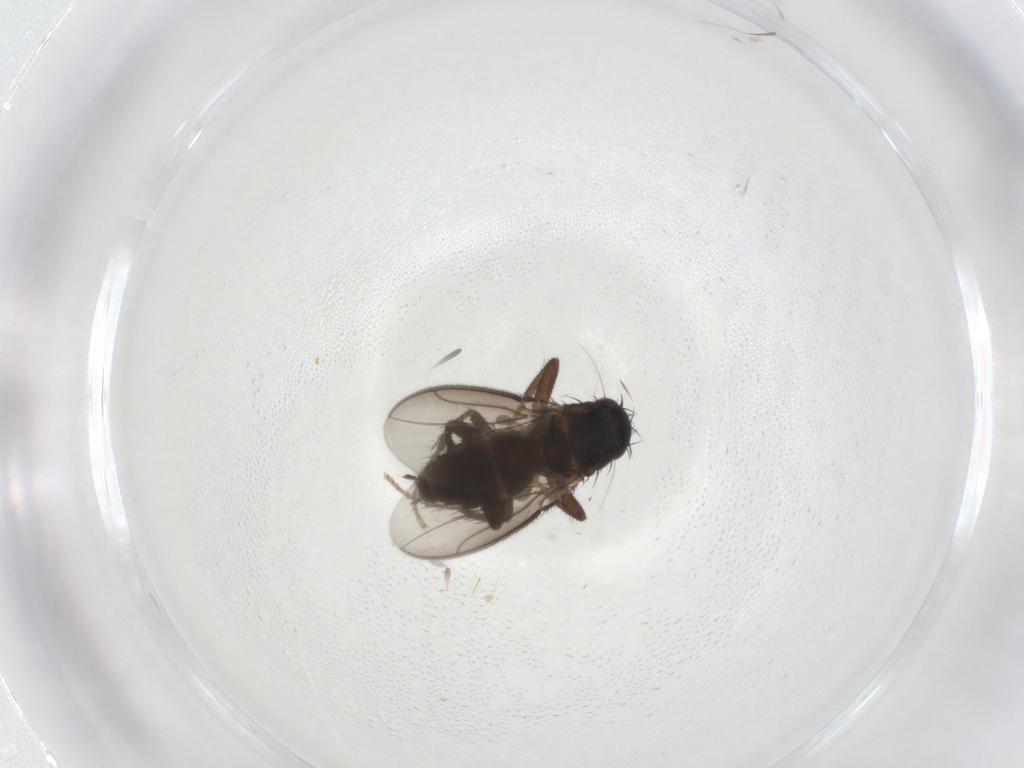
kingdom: Animalia
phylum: Arthropoda
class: Insecta
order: Diptera
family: Sphaeroceridae
